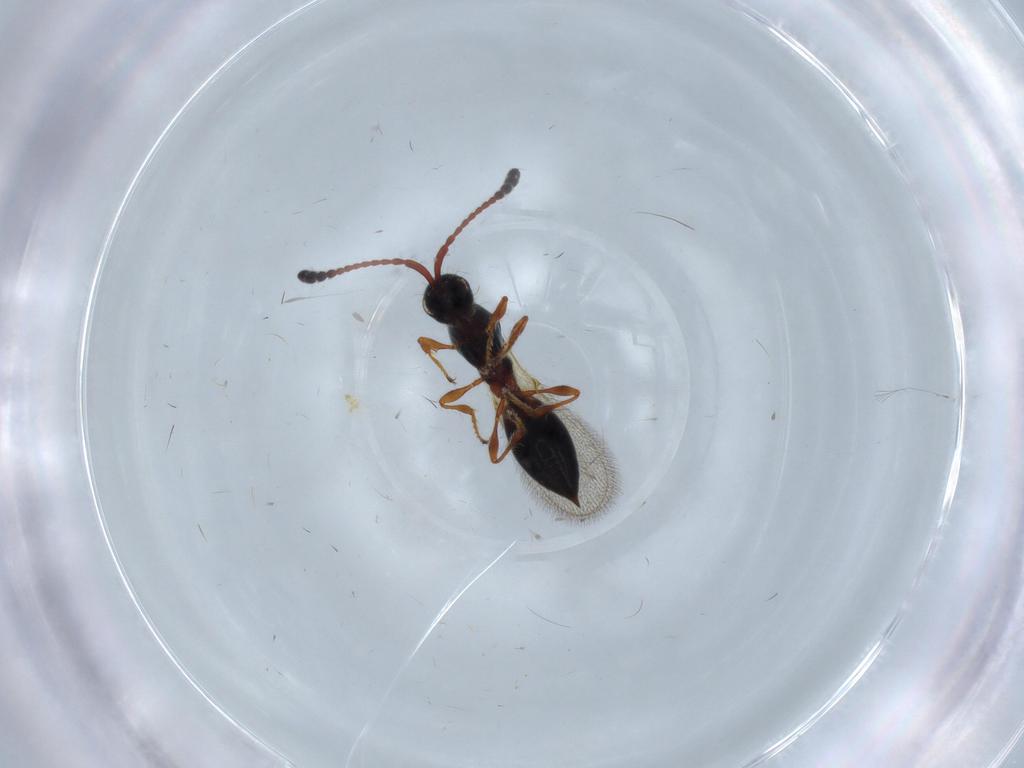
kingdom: Animalia
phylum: Arthropoda
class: Insecta
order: Hymenoptera
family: Diapriidae
